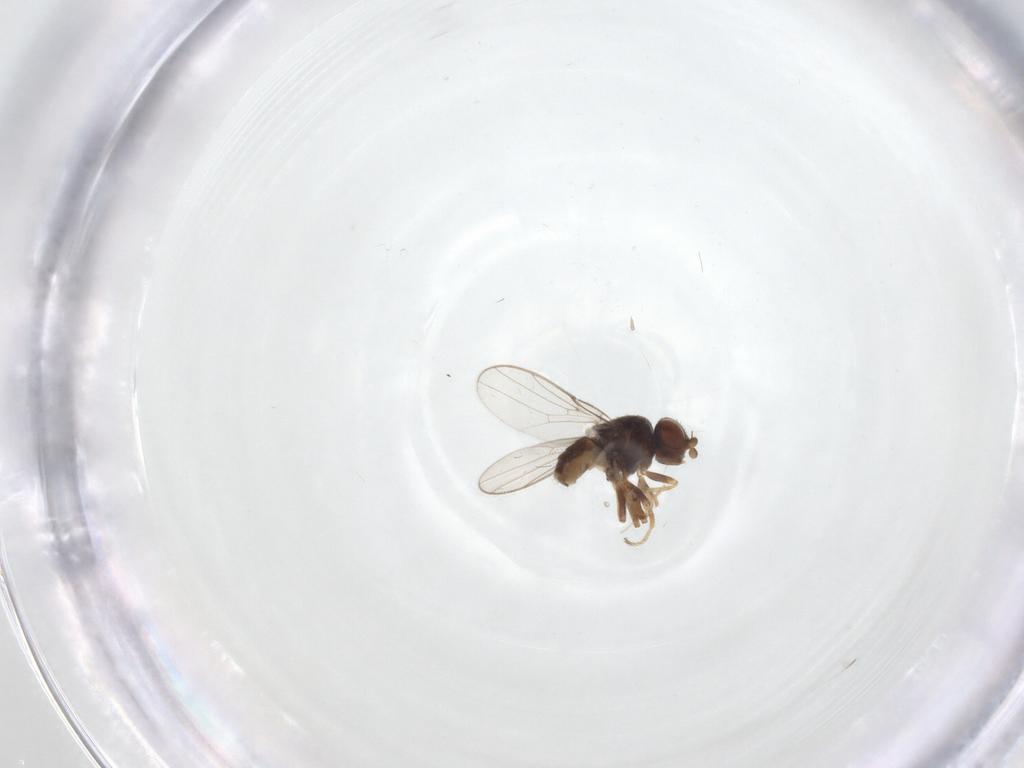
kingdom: Animalia
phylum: Arthropoda
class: Insecta
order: Diptera
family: Chloropidae
